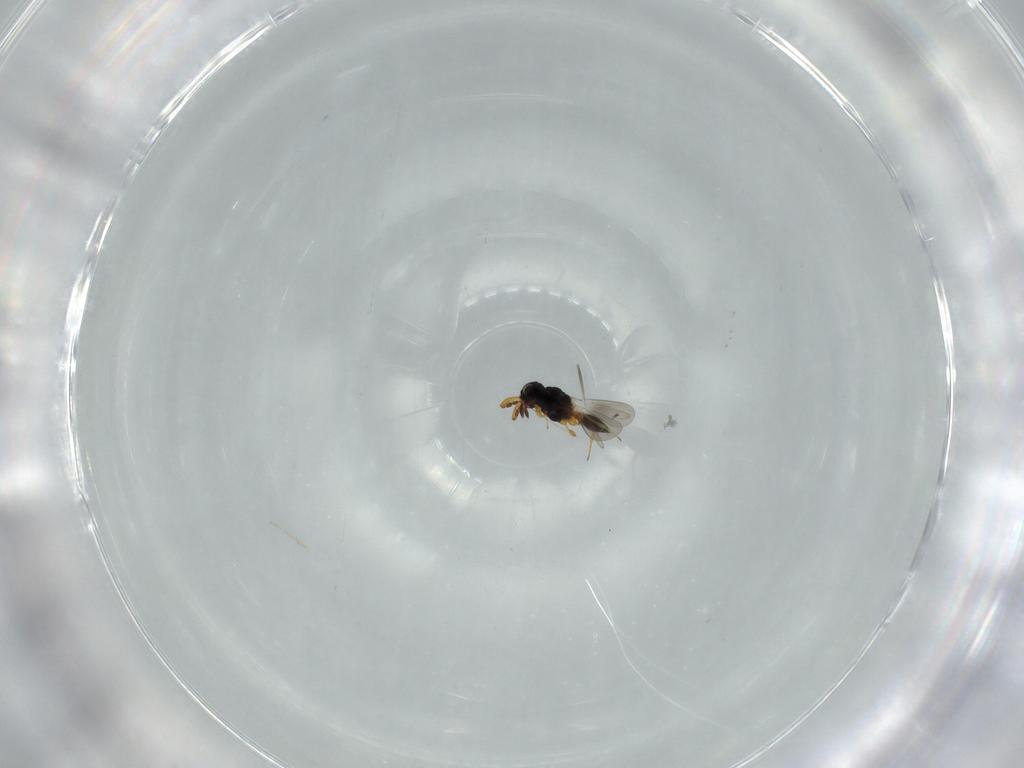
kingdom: Animalia
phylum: Arthropoda
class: Insecta
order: Hymenoptera
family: Platygastridae
